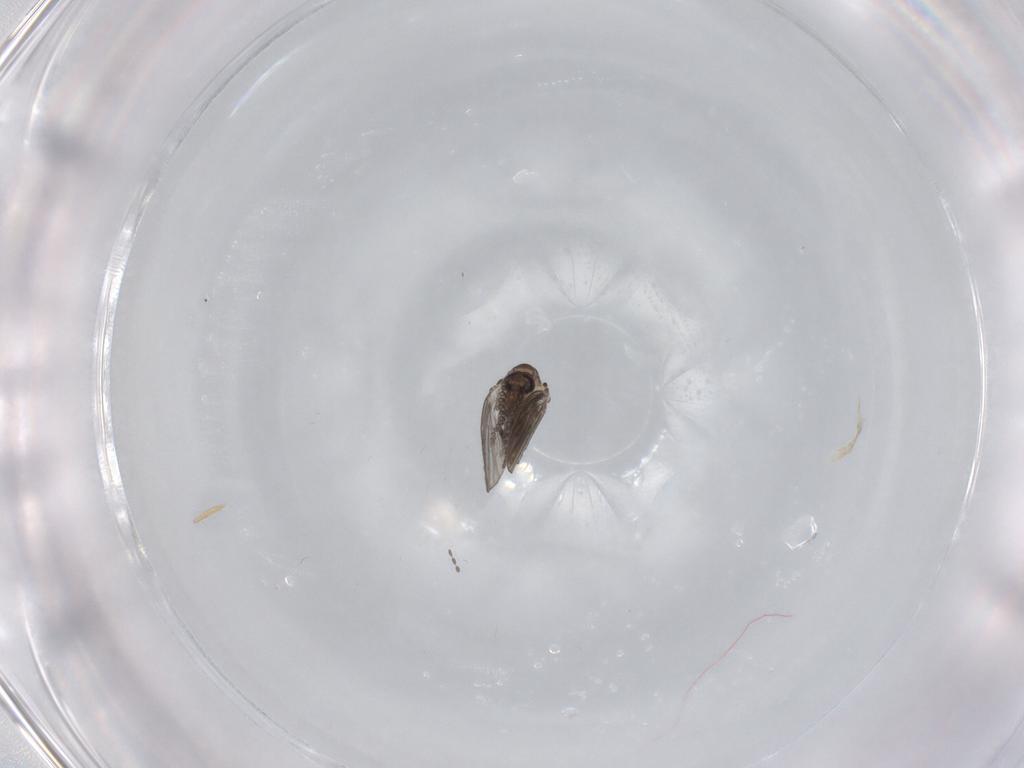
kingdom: Animalia
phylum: Arthropoda
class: Insecta
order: Diptera
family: Psychodidae
